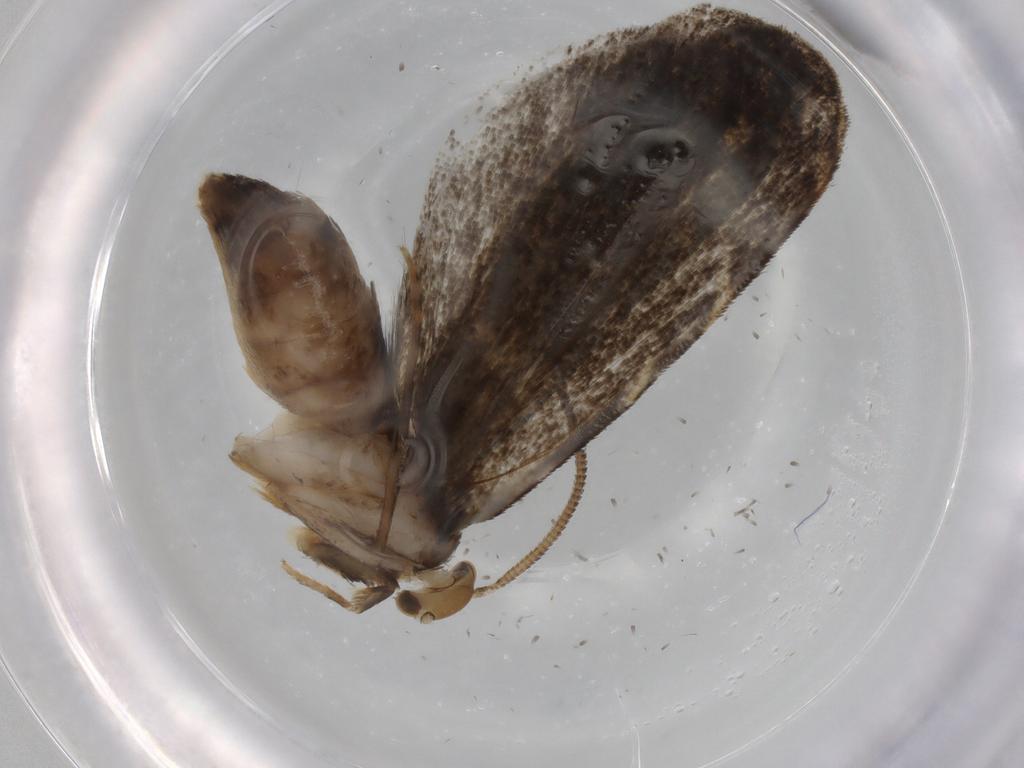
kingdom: Animalia
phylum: Arthropoda
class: Insecta
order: Lepidoptera
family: Dryadaulidae
